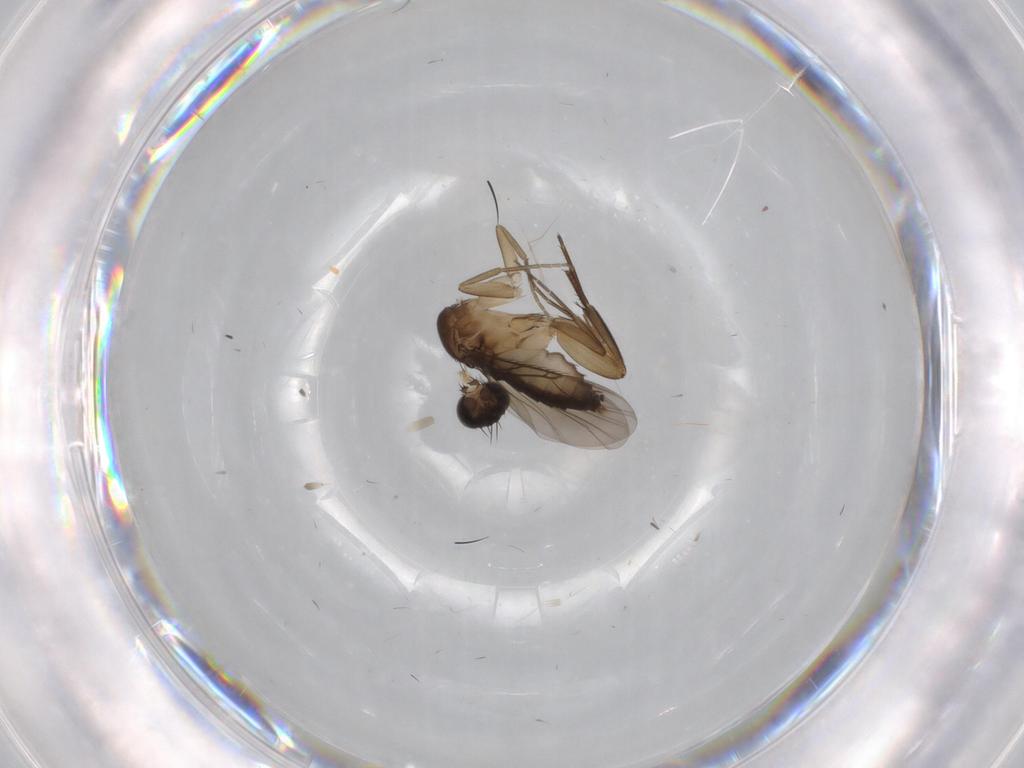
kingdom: Animalia
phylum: Arthropoda
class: Insecta
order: Diptera
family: Phoridae
